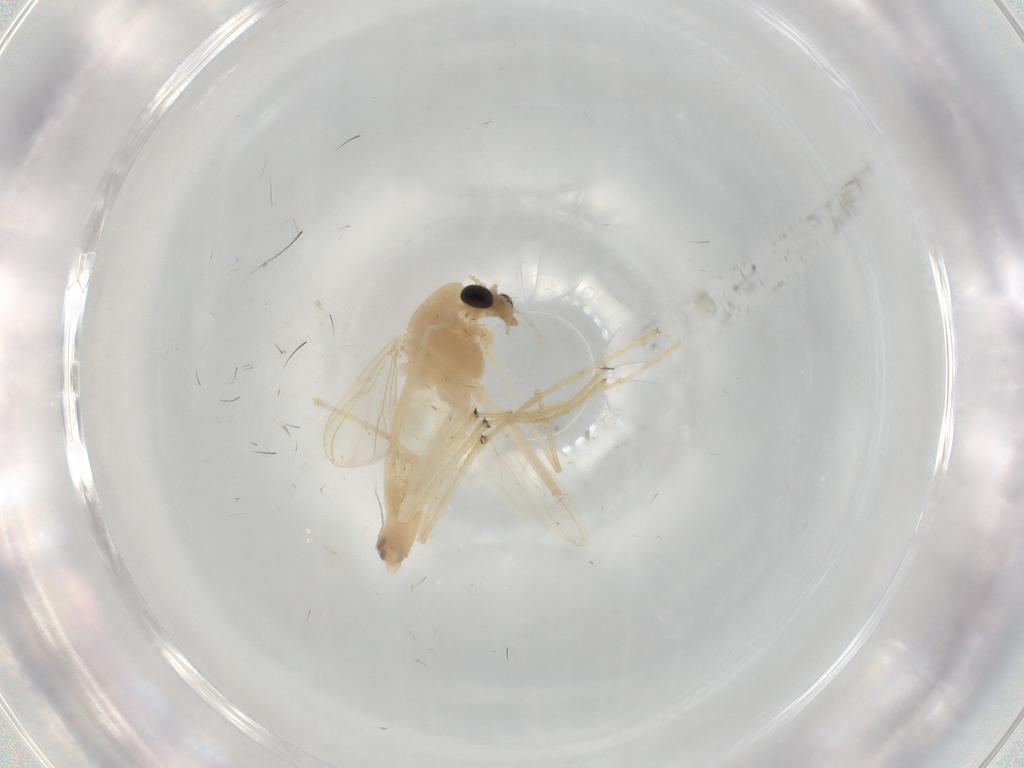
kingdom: Animalia
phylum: Arthropoda
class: Insecta
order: Diptera
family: Chironomidae
